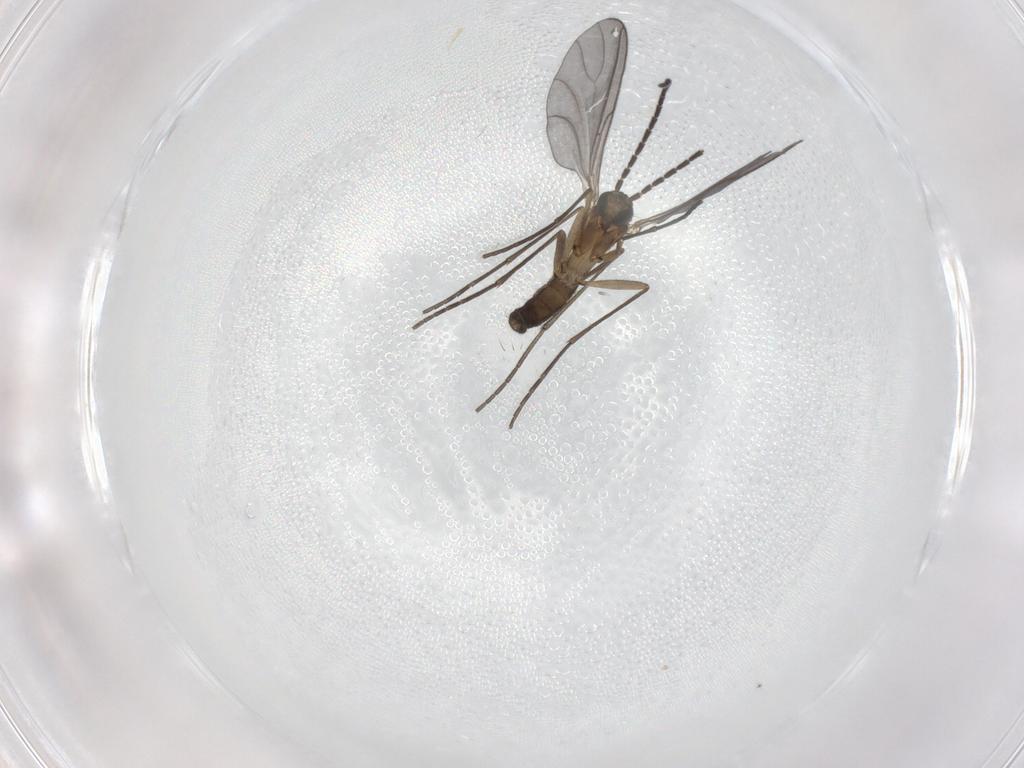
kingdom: Animalia
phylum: Arthropoda
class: Insecta
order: Diptera
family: Sciaridae
